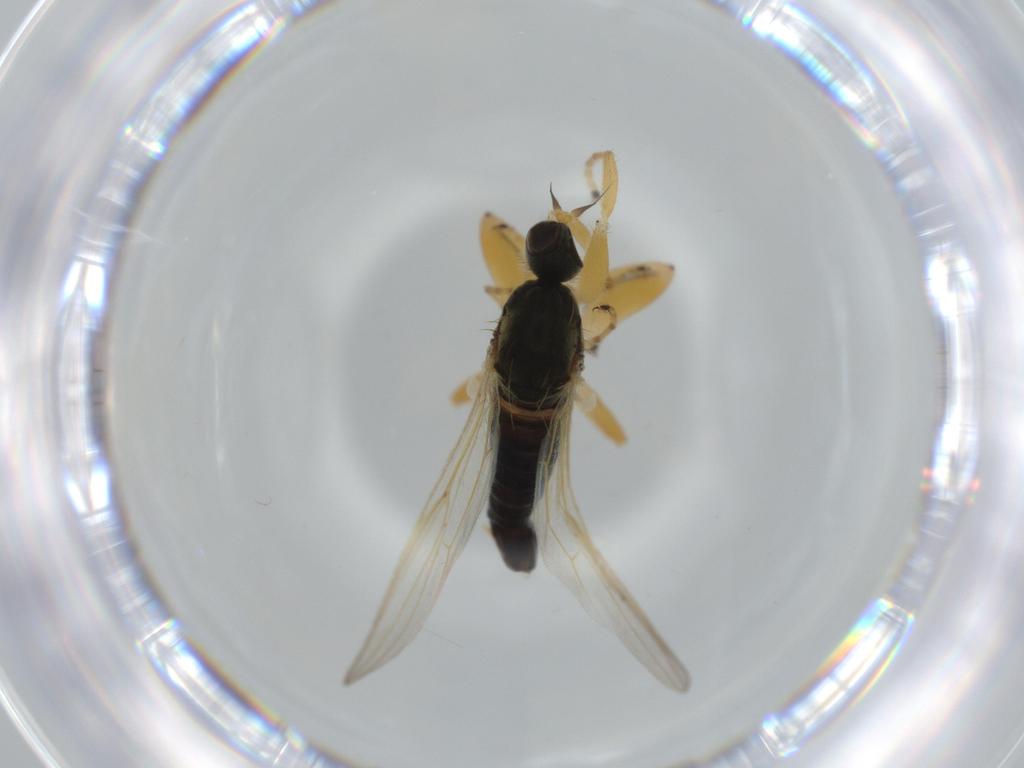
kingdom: Animalia
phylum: Arthropoda
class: Insecta
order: Diptera
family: Hybotidae
